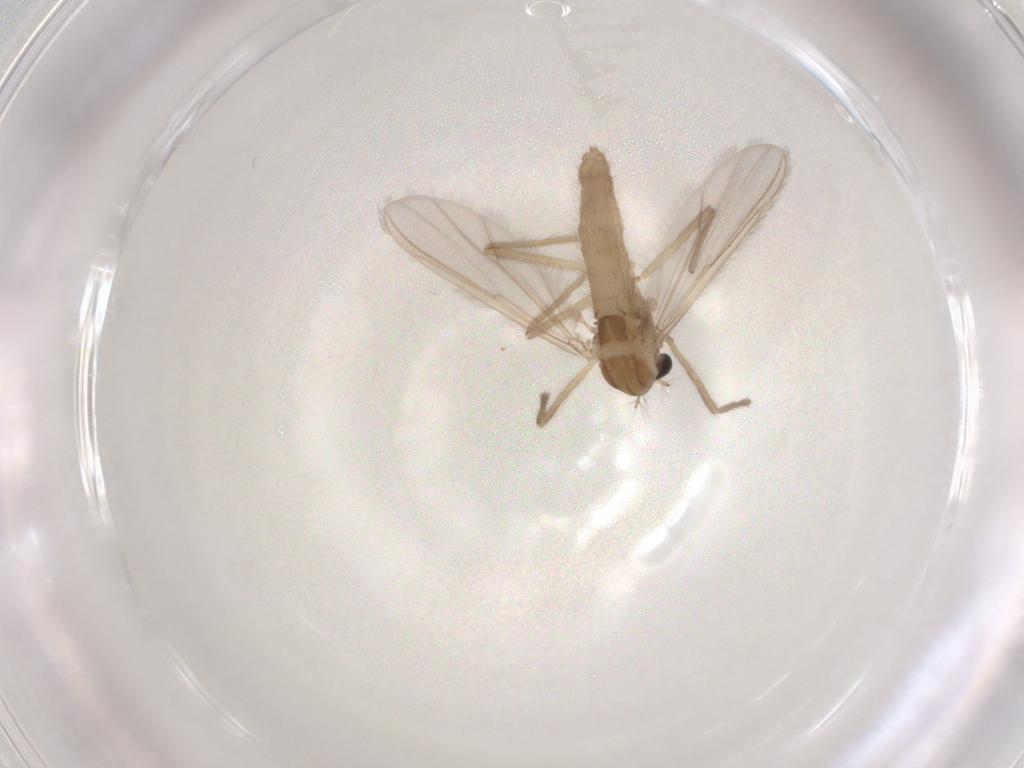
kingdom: Animalia
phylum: Arthropoda
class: Insecta
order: Diptera
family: Chironomidae
